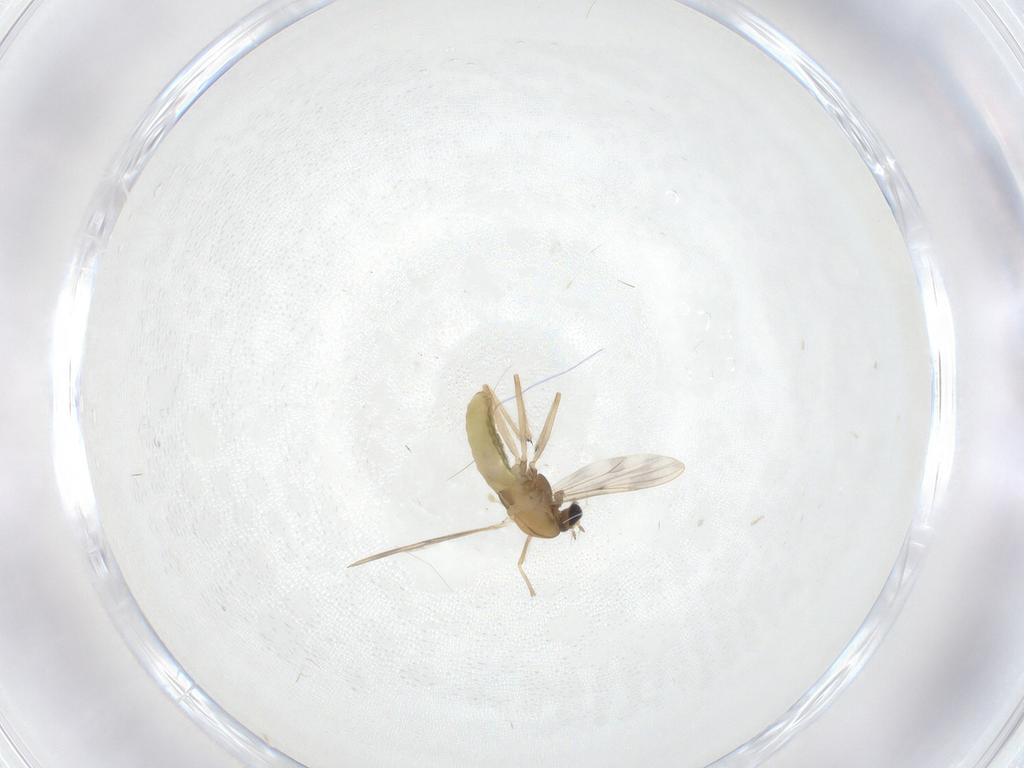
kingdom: Animalia
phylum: Arthropoda
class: Insecta
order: Diptera
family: Chironomidae
